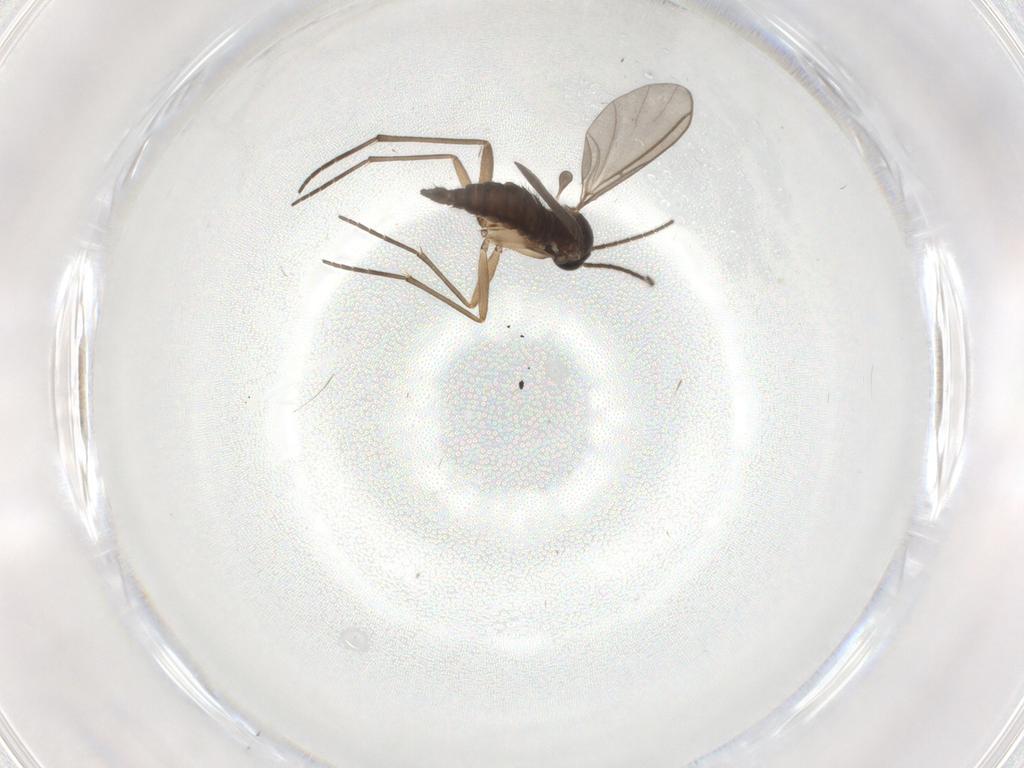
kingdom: Animalia
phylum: Arthropoda
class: Insecta
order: Diptera
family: Sciaridae
